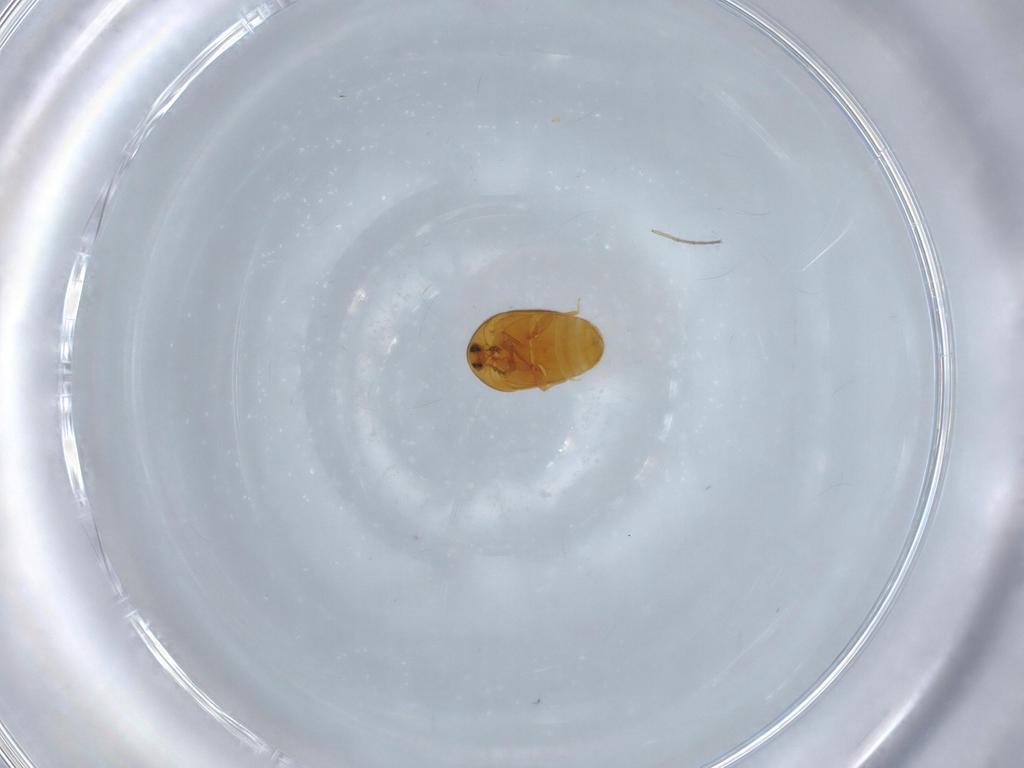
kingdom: Animalia
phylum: Arthropoda
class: Insecta
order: Coleoptera
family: Corylophidae
